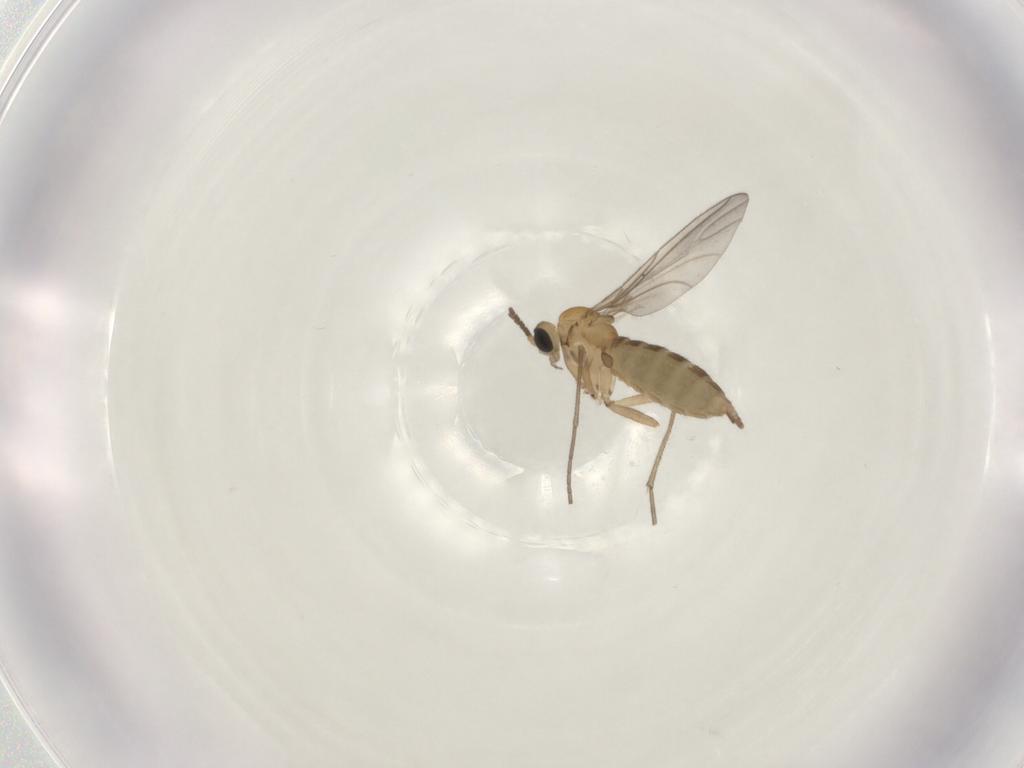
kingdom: Animalia
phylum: Arthropoda
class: Insecta
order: Diptera
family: Sciaridae
